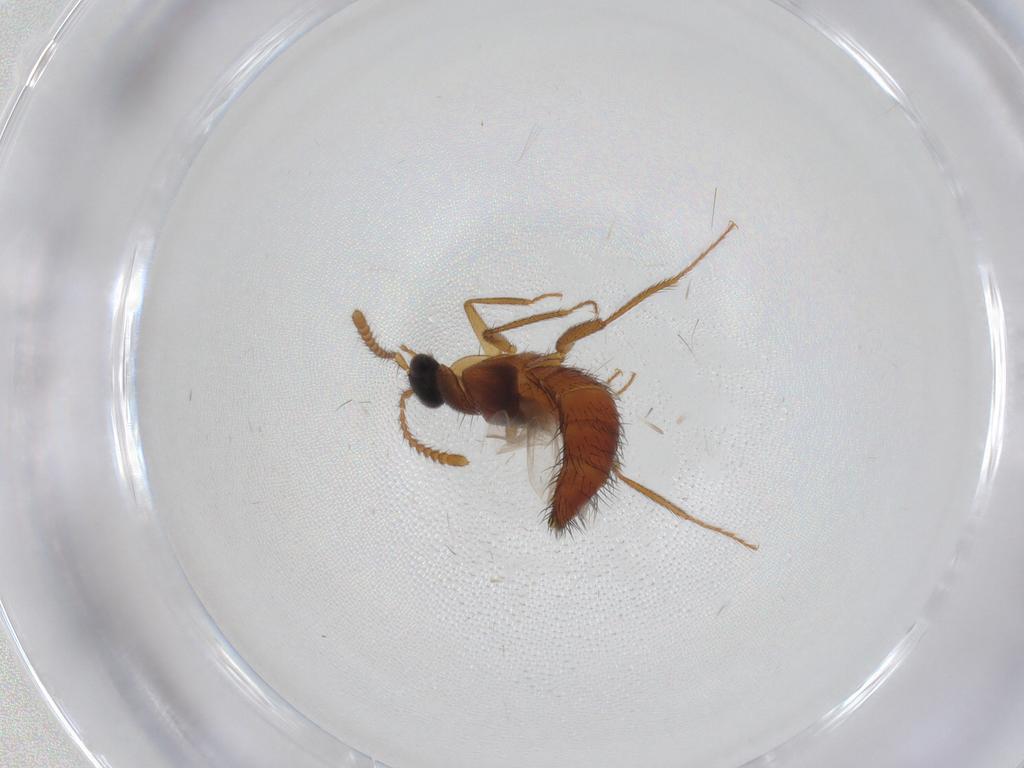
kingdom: Animalia
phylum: Arthropoda
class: Insecta
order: Coleoptera
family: Staphylinidae
